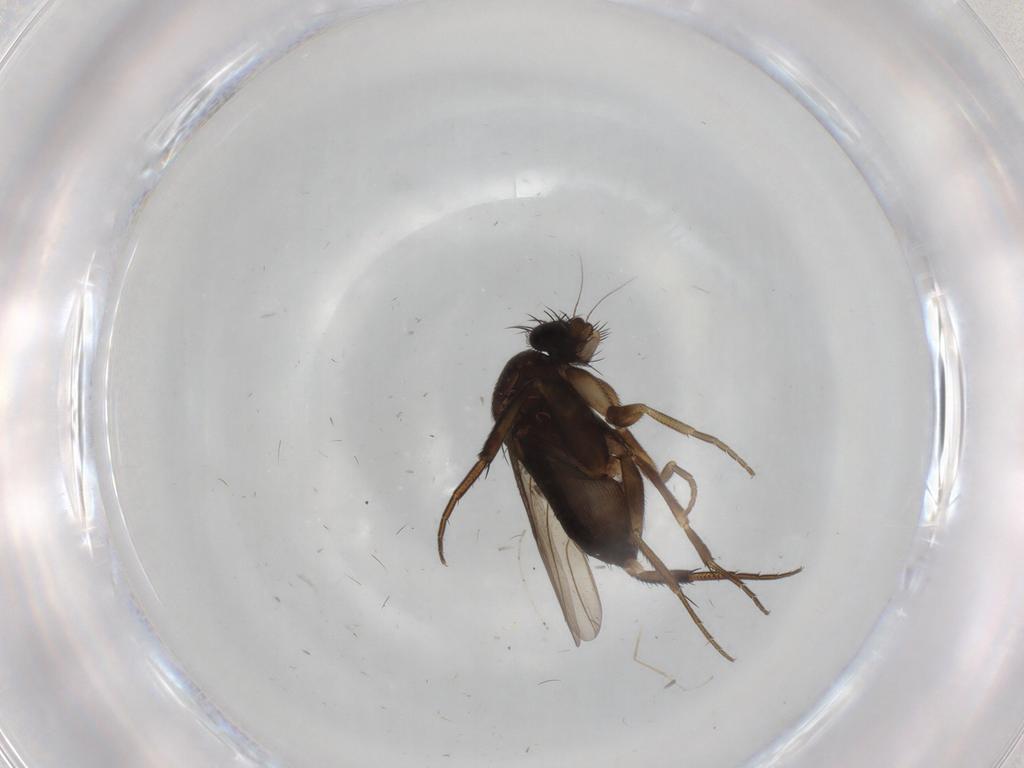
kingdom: Animalia
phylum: Arthropoda
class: Insecta
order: Diptera
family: Phoridae
